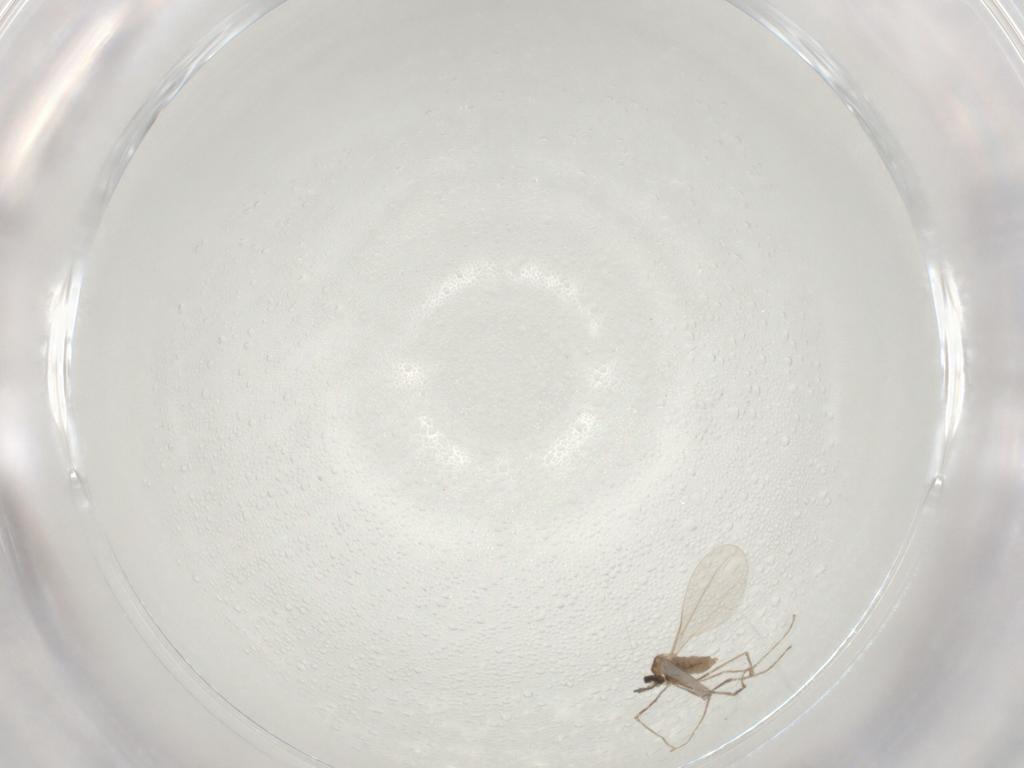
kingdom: Animalia
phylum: Arthropoda
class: Insecta
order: Diptera
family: Cecidomyiidae
